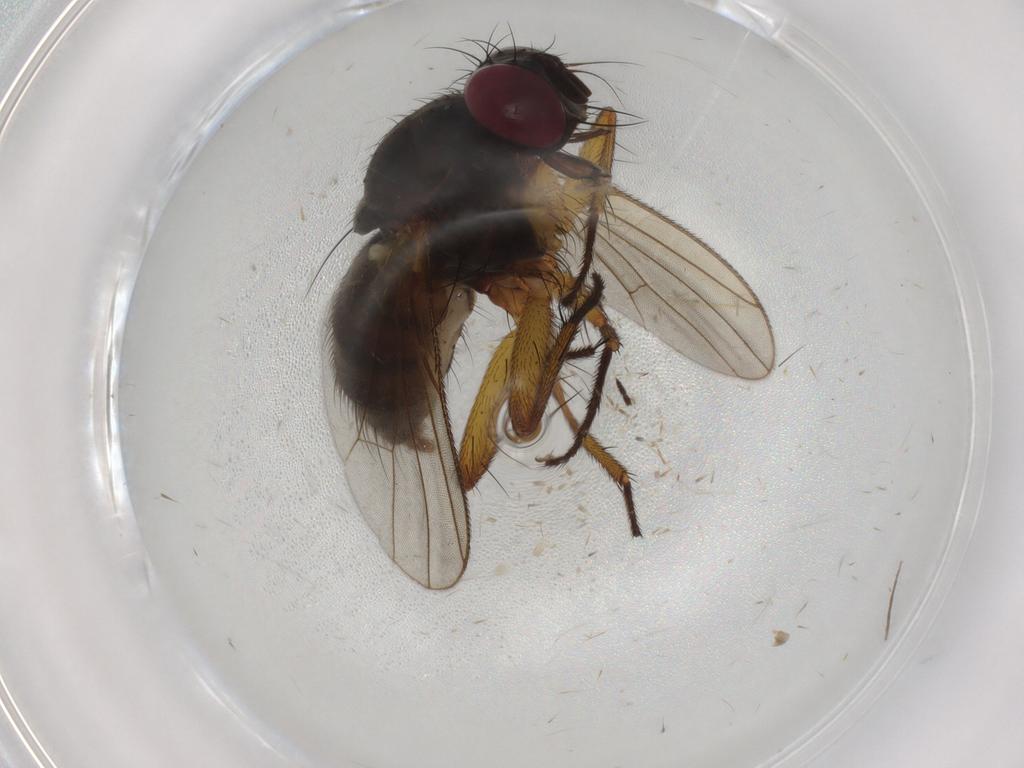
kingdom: Animalia
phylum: Arthropoda
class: Insecta
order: Diptera
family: Muscidae
